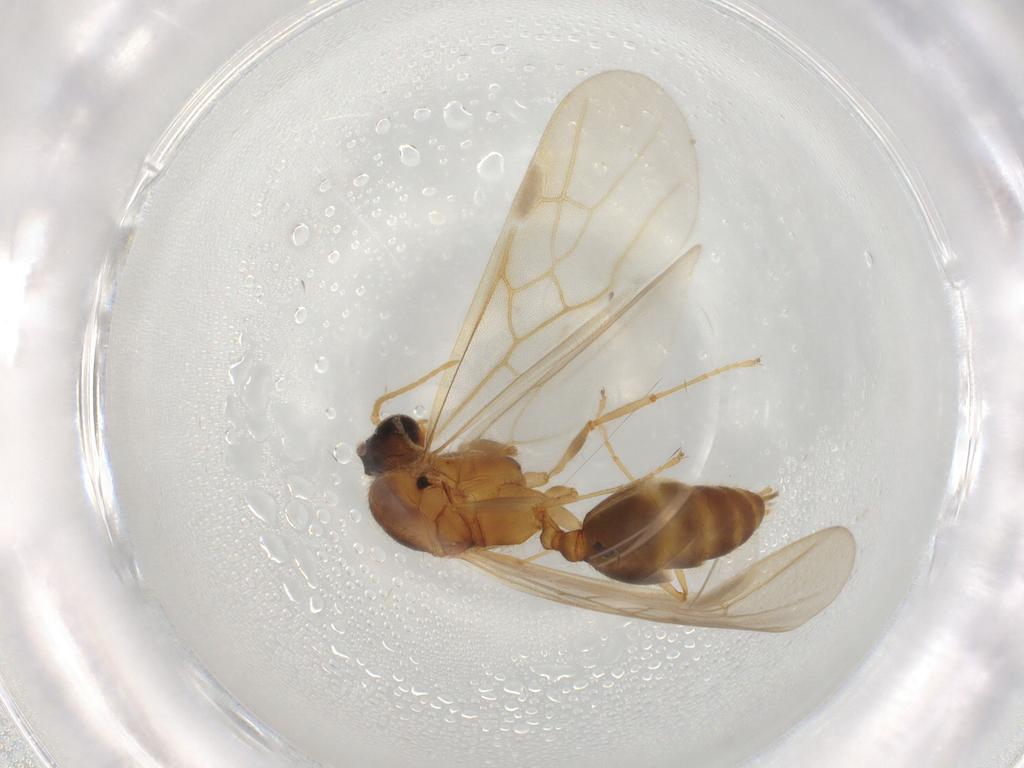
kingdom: Animalia
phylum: Arthropoda
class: Insecta
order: Hymenoptera
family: Formicidae
